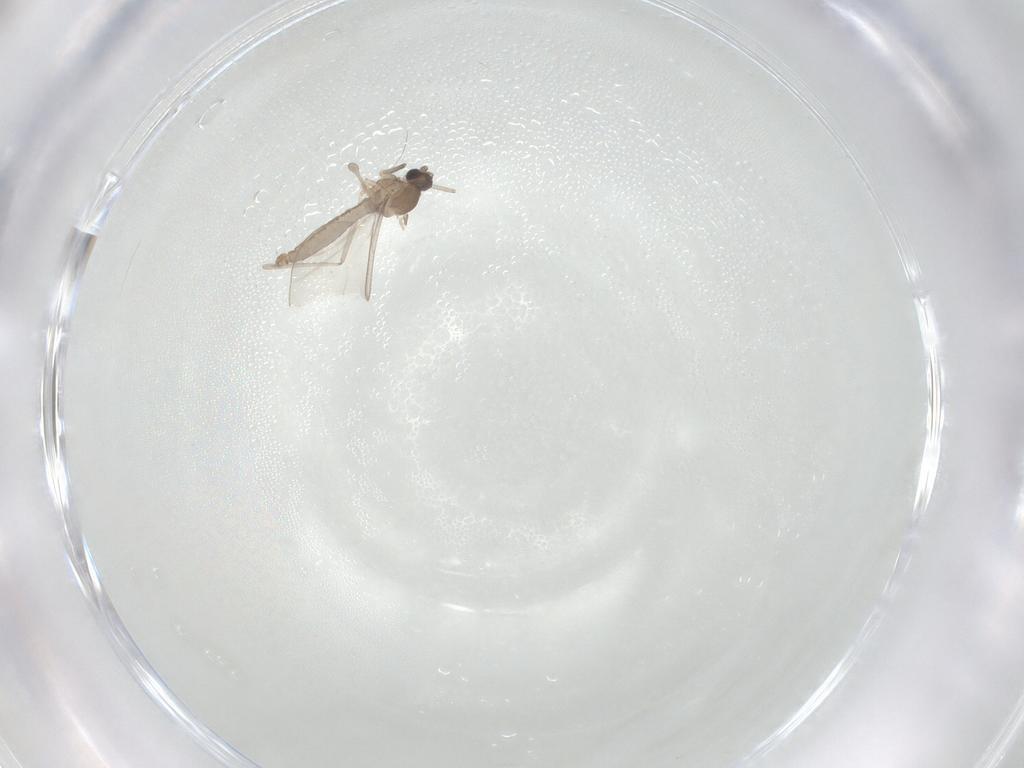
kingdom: Animalia
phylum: Arthropoda
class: Insecta
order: Diptera
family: Cecidomyiidae
